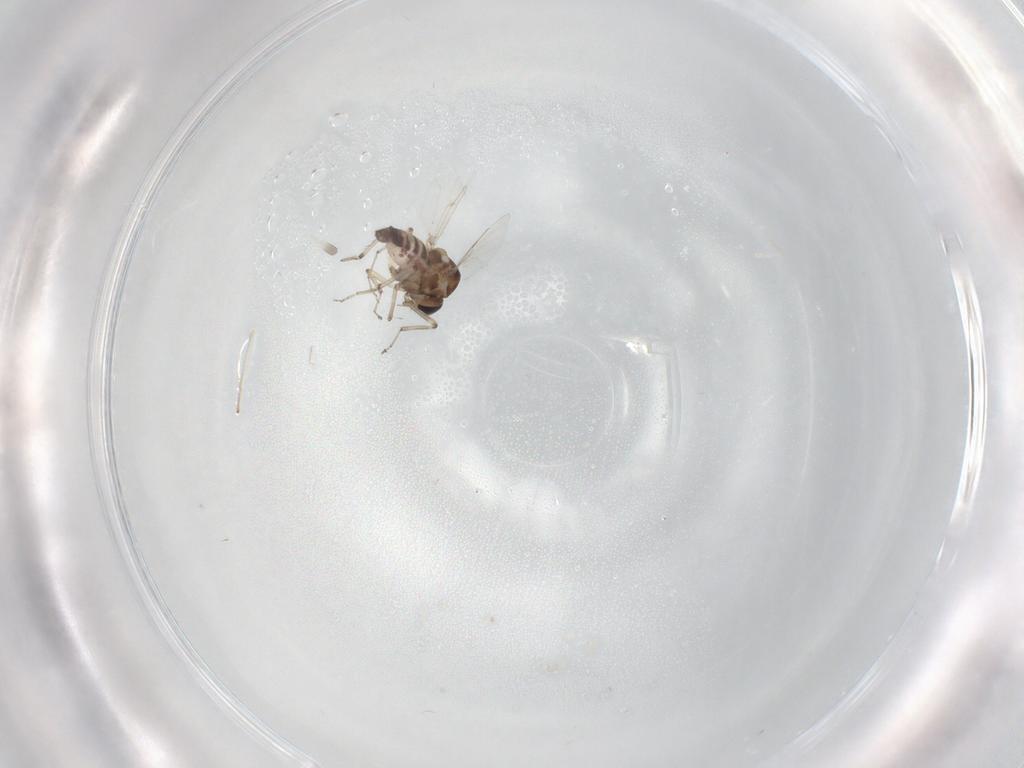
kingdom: Animalia
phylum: Arthropoda
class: Insecta
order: Diptera
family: Ceratopogonidae
